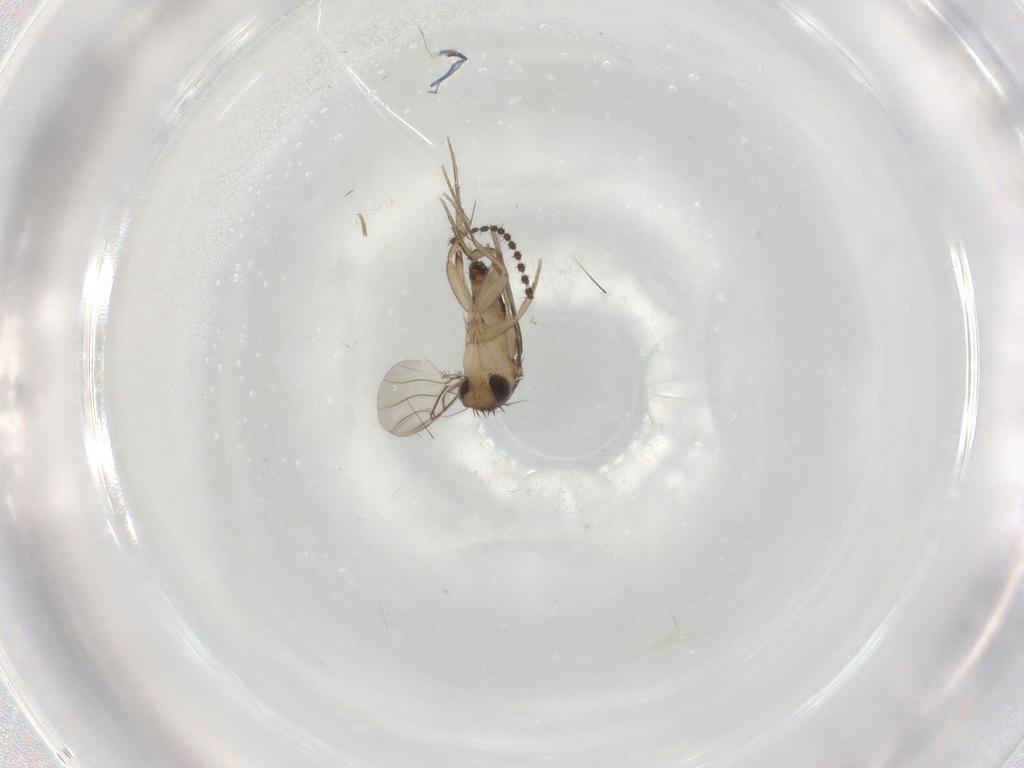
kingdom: Animalia
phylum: Arthropoda
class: Insecta
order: Diptera
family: Phoridae
